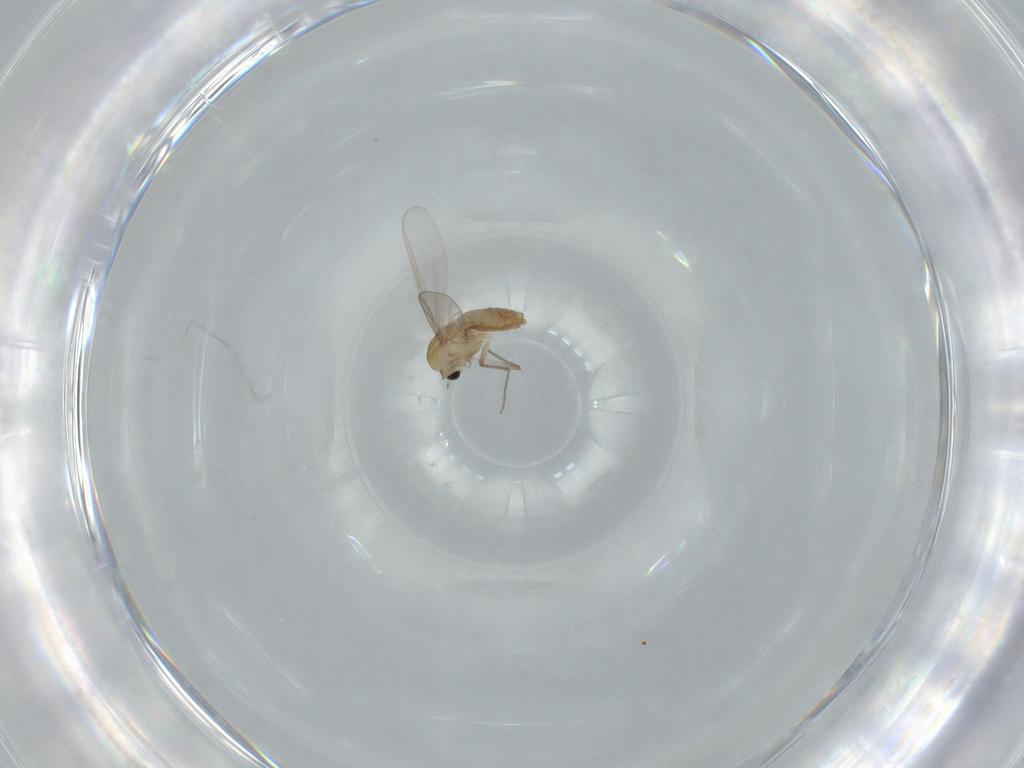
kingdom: Animalia
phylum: Arthropoda
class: Insecta
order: Diptera
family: Chironomidae
